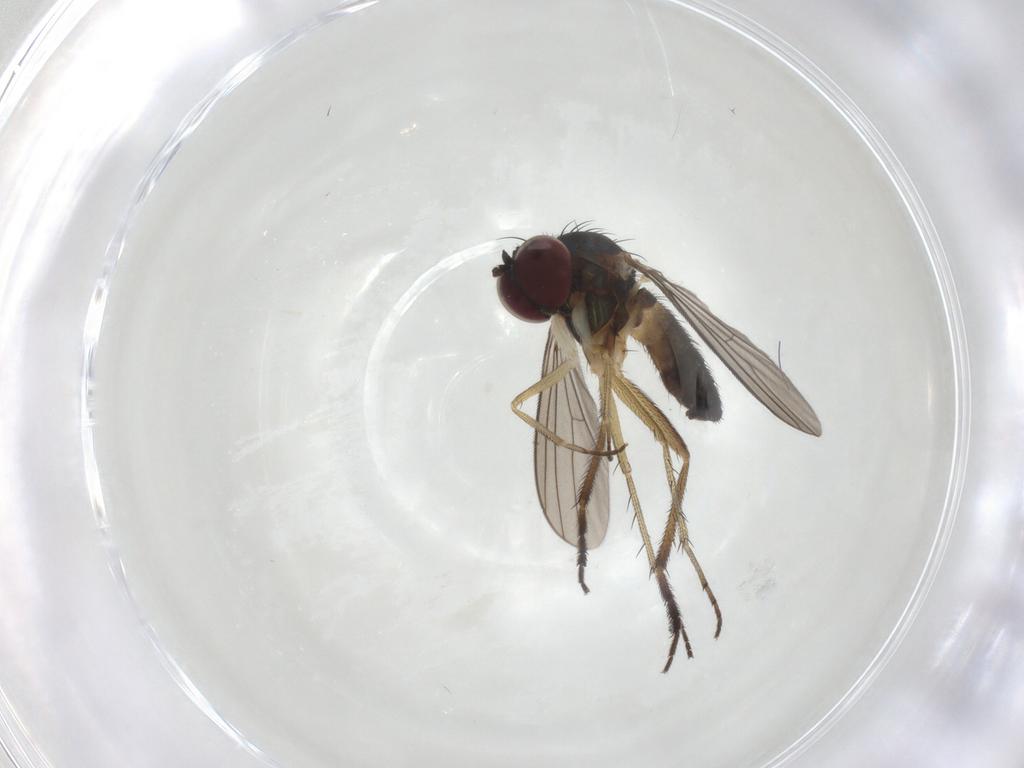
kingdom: Animalia
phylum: Arthropoda
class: Insecta
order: Diptera
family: Dolichopodidae
